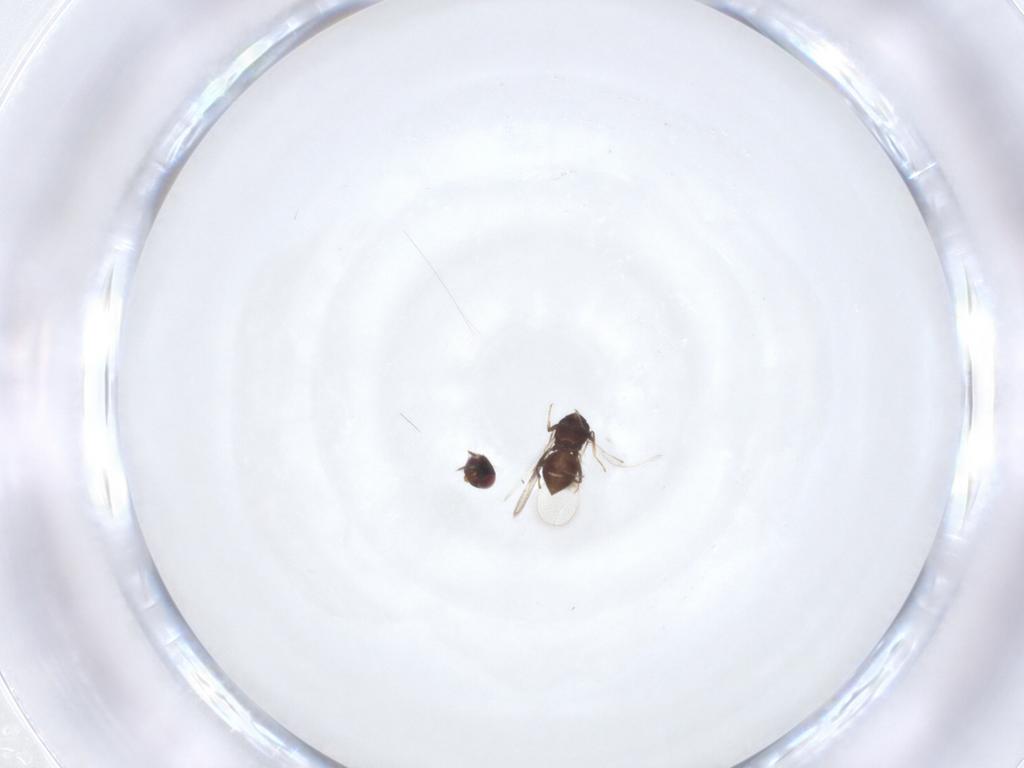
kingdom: Animalia
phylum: Arthropoda
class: Insecta
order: Hymenoptera
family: Eulophidae
